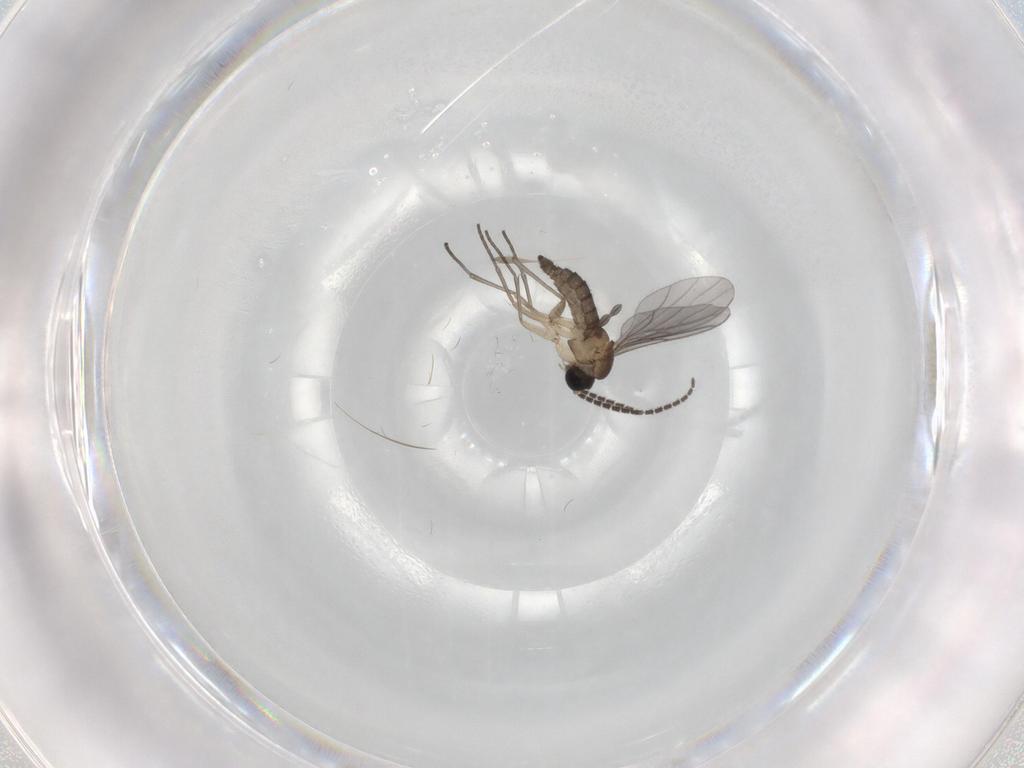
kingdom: Animalia
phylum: Arthropoda
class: Insecta
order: Diptera
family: Sciaridae
